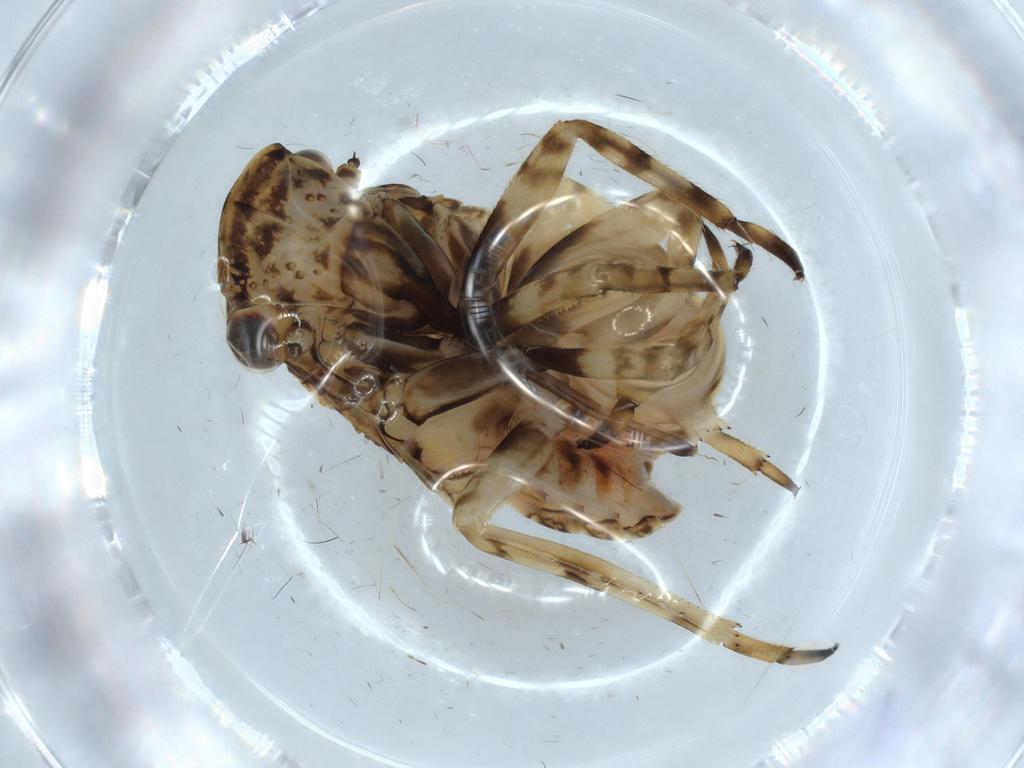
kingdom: Animalia
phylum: Arthropoda
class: Insecta
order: Hemiptera
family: Fulgoridae
